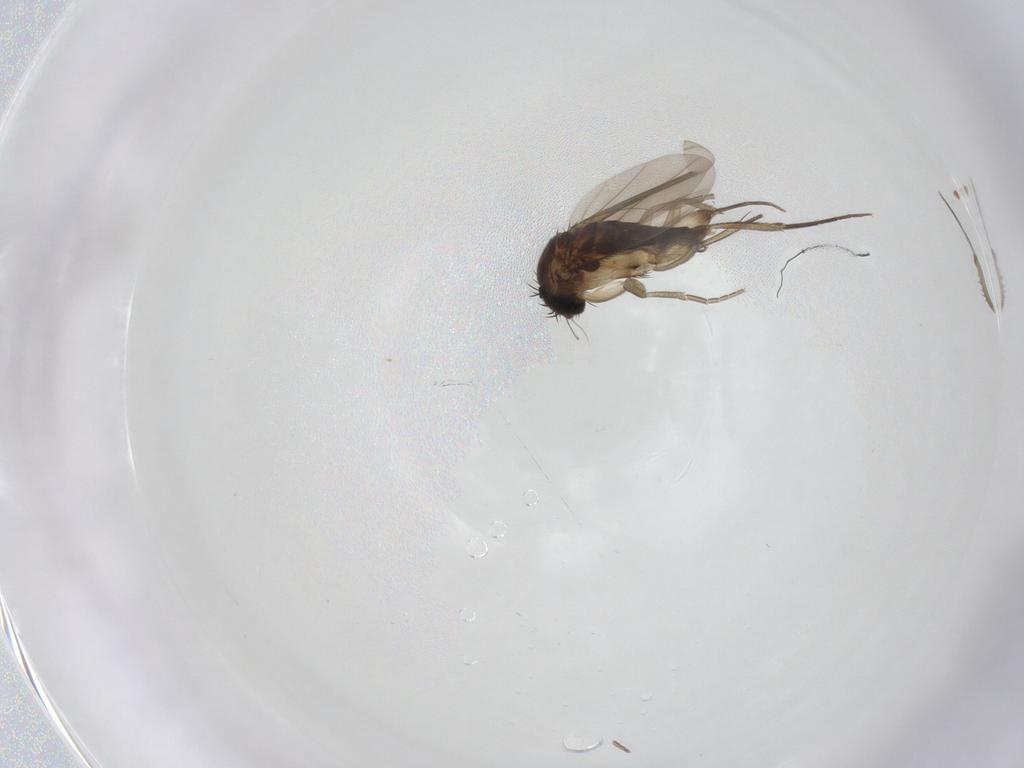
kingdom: Animalia
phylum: Arthropoda
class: Insecta
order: Diptera
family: Phoridae
